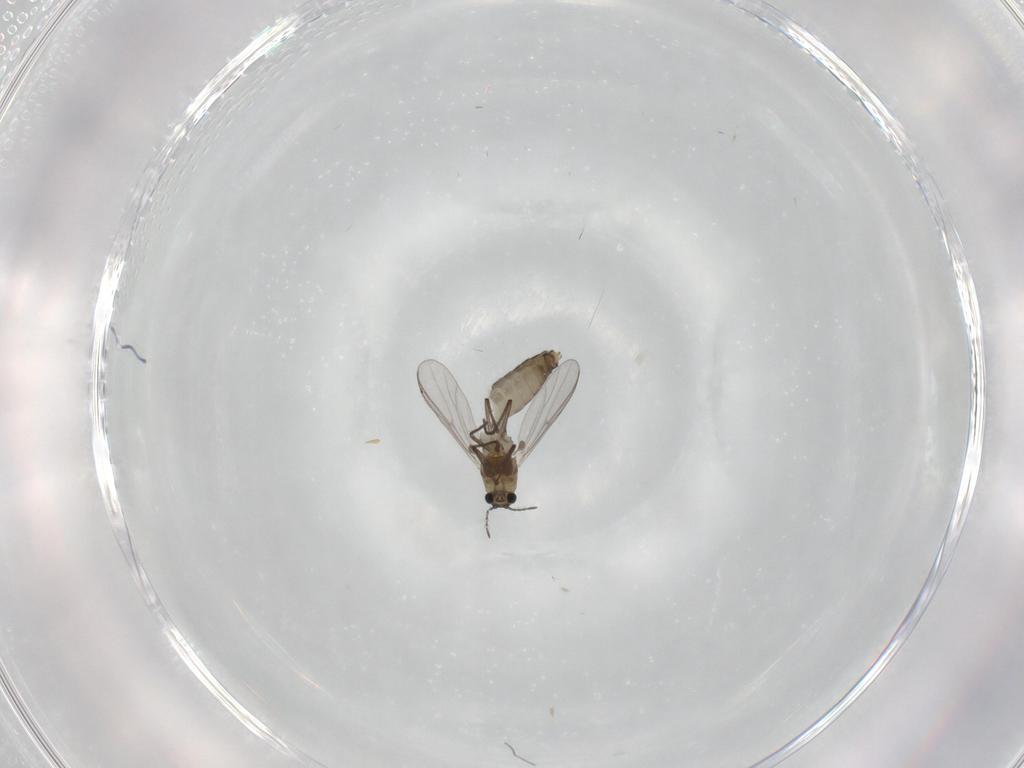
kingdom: Animalia
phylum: Arthropoda
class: Insecta
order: Diptera
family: Chironomidae
